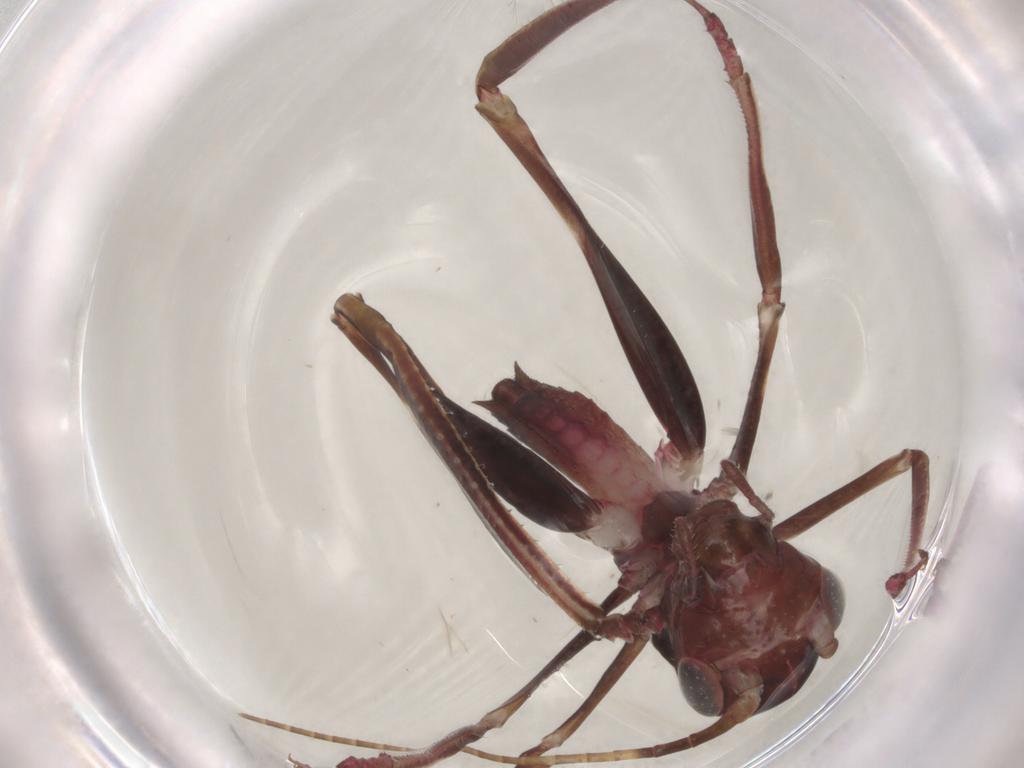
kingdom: Animalia
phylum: Arthropoda
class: Insecta
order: Orthoptera
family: Tettigoniidae
